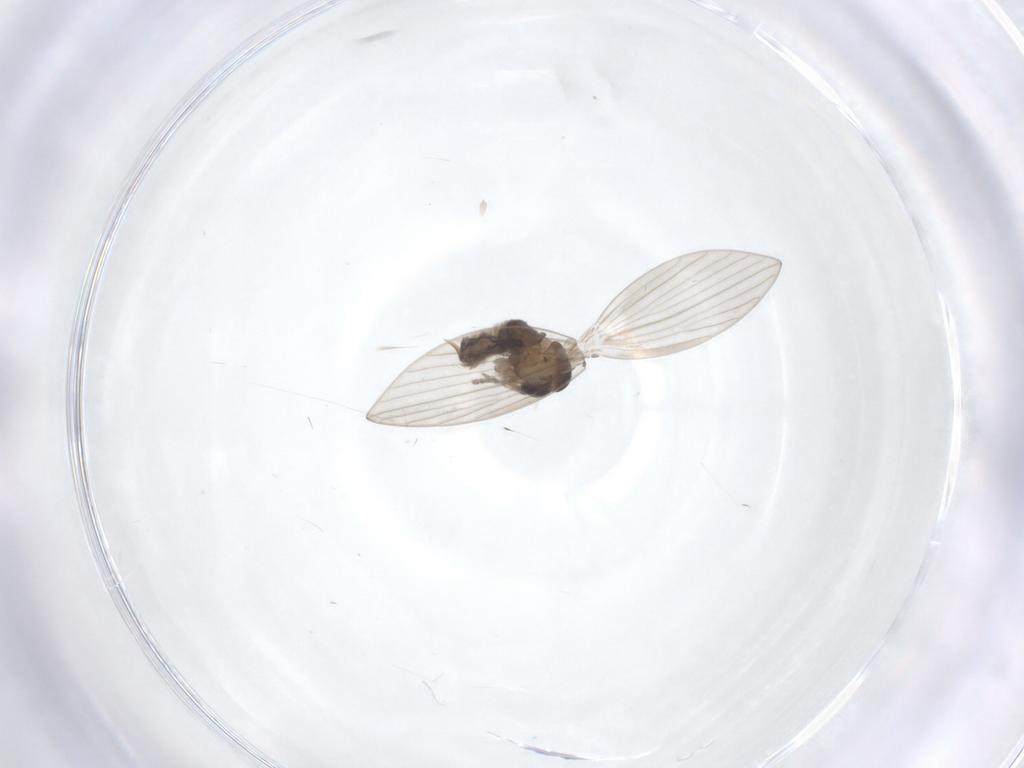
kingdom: Animalia
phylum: Arthropoda
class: Insecta
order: Diptera
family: Psychodidae
